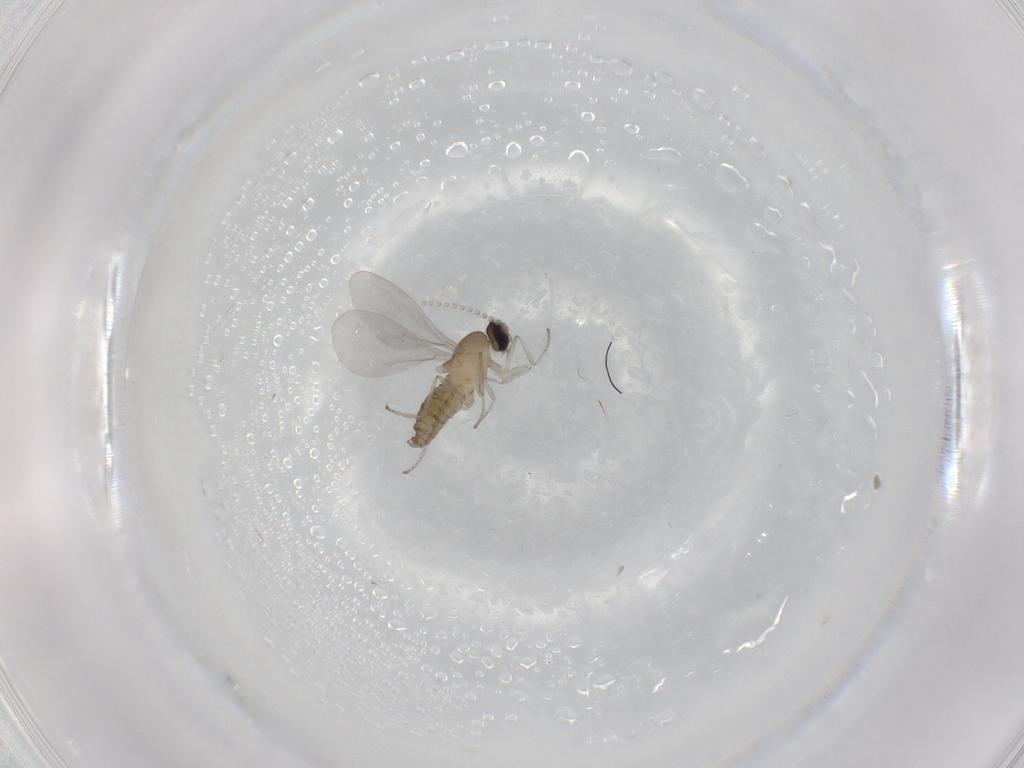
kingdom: Animalia
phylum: Arthropoda
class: Insecta
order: Diptera
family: Cecidomyiidae
